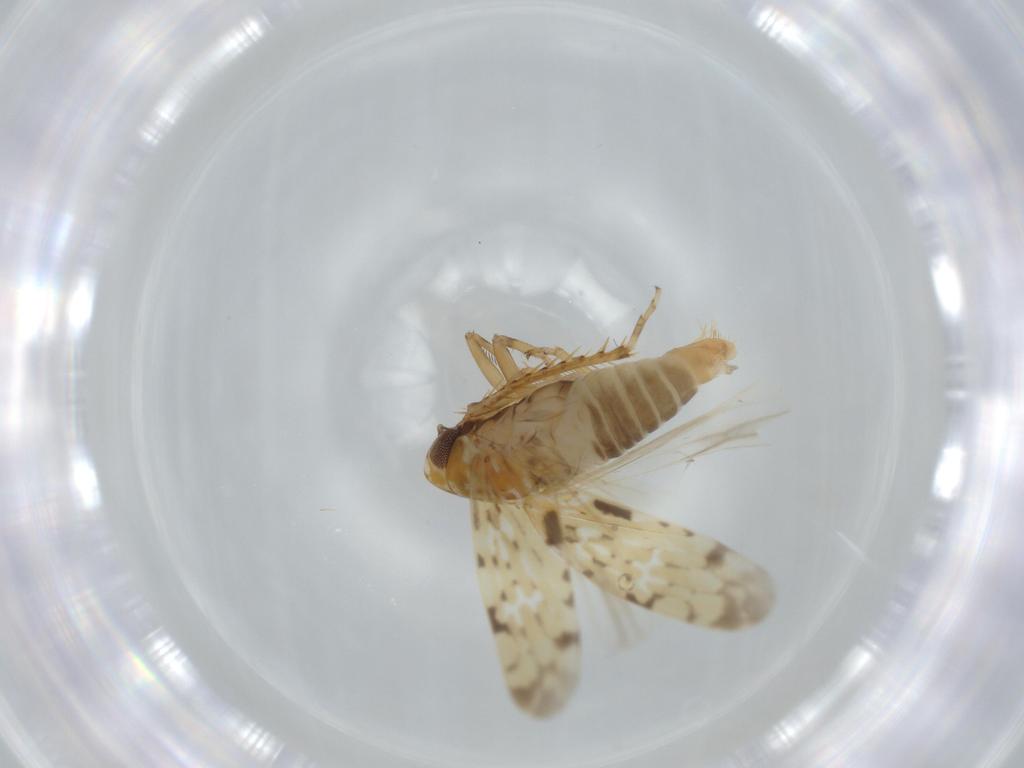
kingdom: Animalia
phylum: Arthropoda
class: Insecta
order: Hemiptera
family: Cicadellidae
